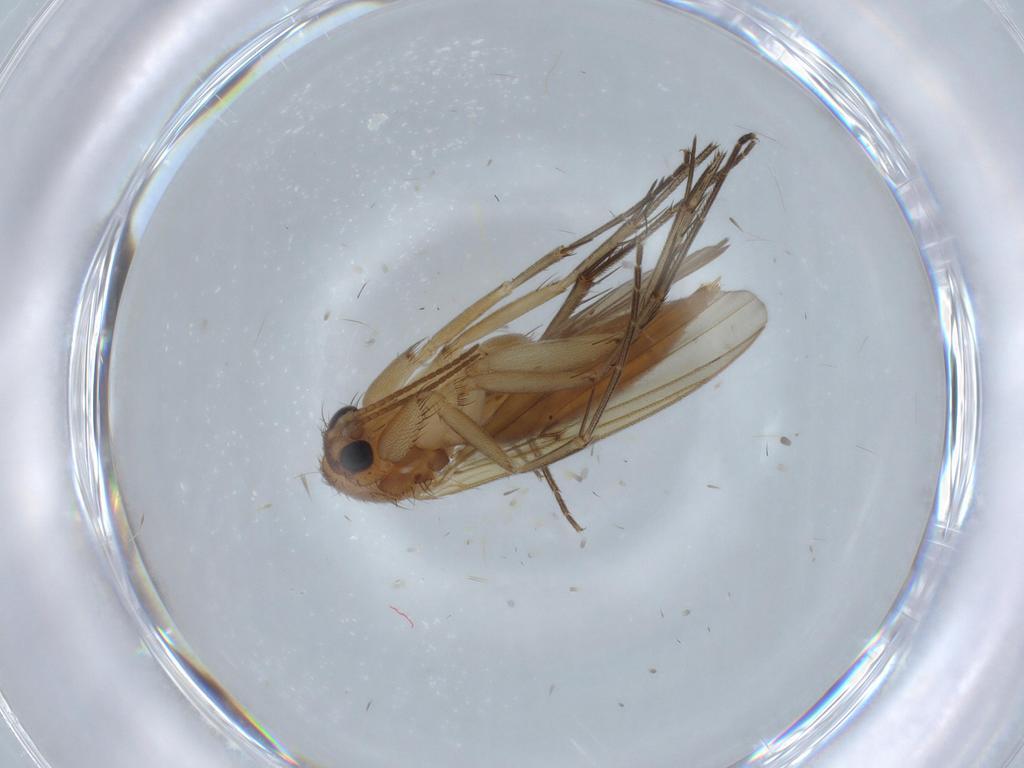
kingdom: Animalia
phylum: Arthropoda
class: Insecta
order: Diptera
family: Mycetophilidae
